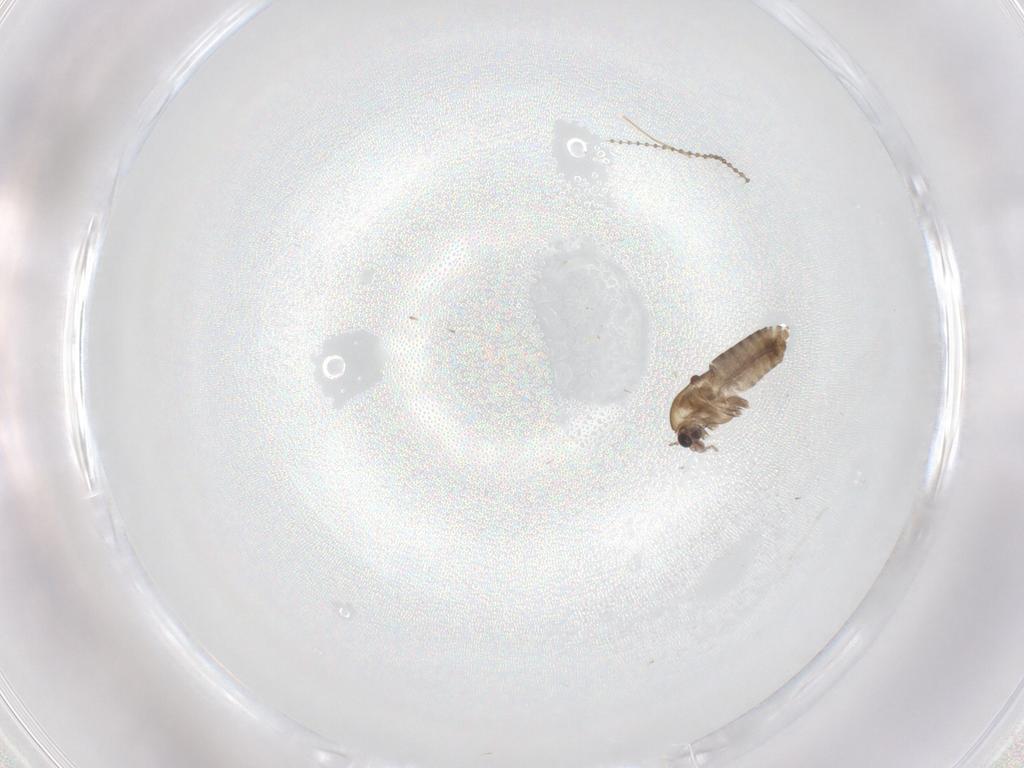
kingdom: Animalia
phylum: Arthropoda
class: Insecta
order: Diptera
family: Chironomidae
